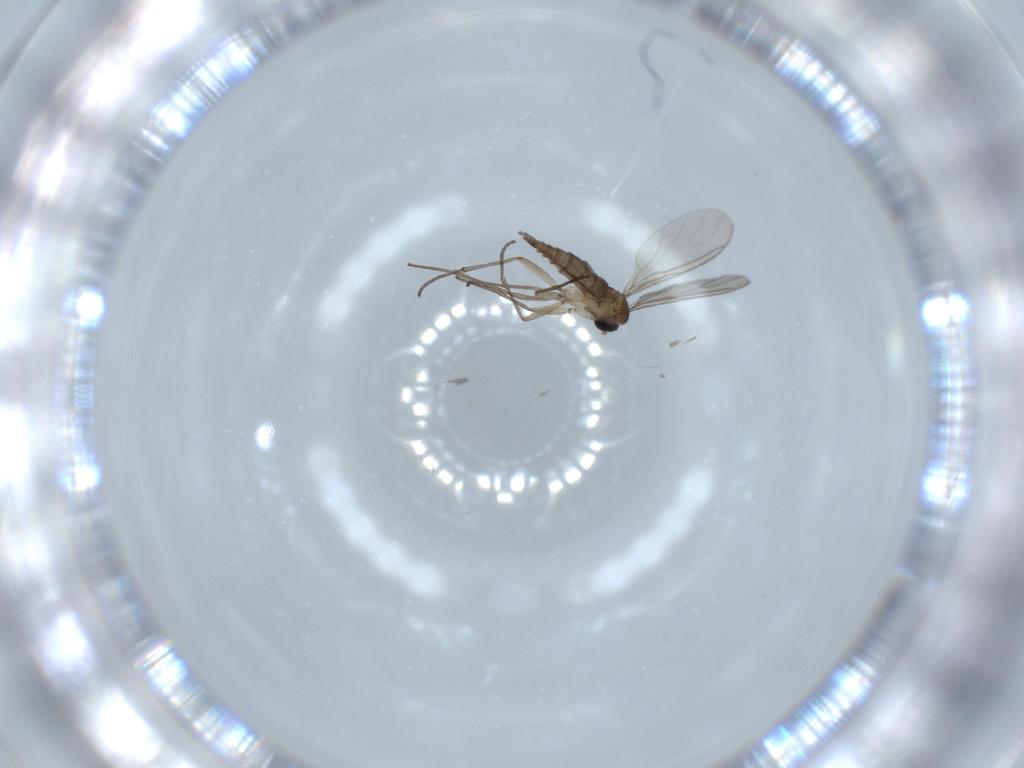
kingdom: Animalia
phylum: Arthropoda
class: Insecta
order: Diptera
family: Sciaridae
